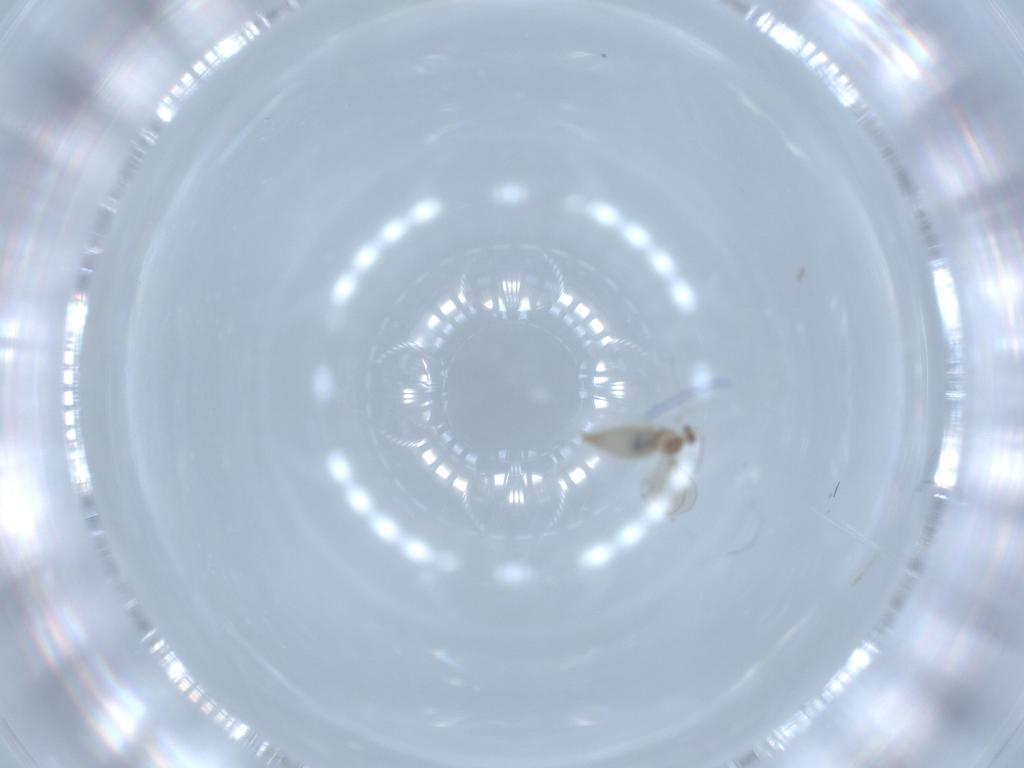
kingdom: Animalia
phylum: Arthropoda
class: Insecta
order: Diptera
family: Cecidomyiidae
